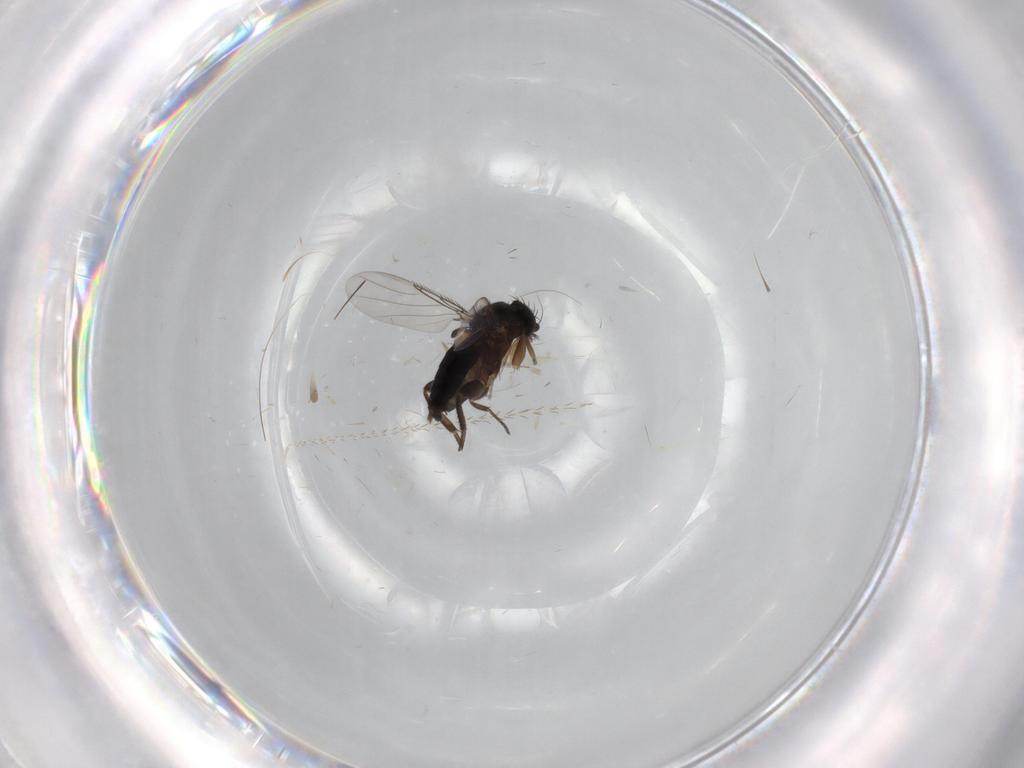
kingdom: Animalia
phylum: Arthropoda
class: Insecta
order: Diptera
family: Phoridae
